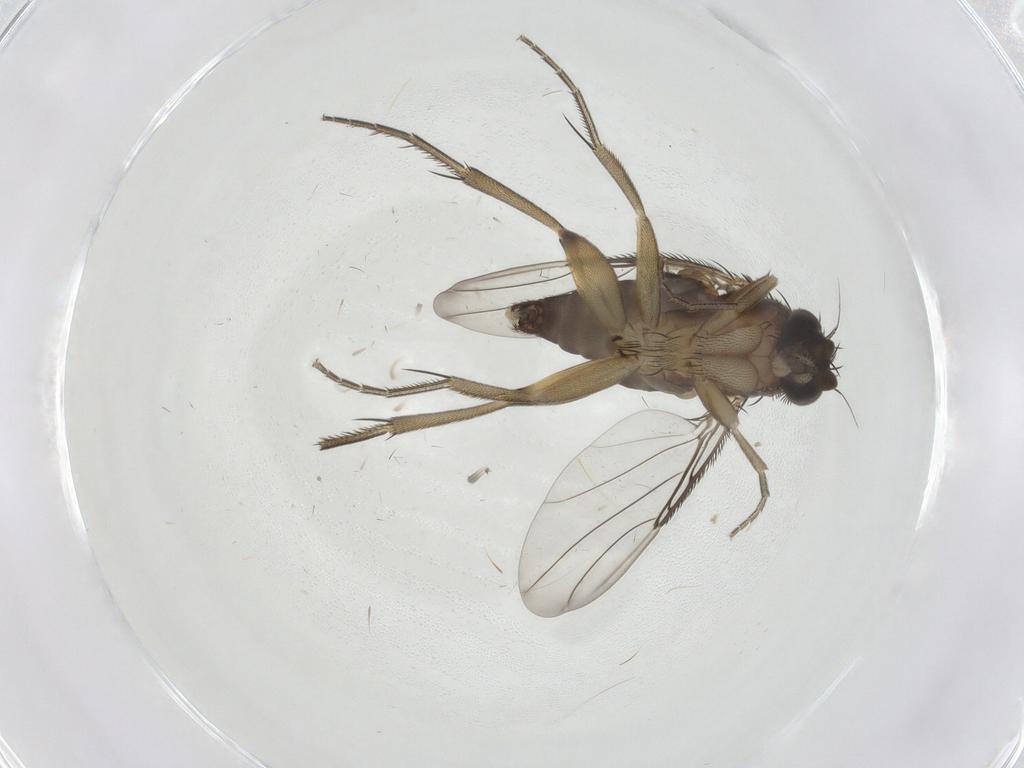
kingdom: Animalia
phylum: Arthropoda
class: Insecta
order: Diptera
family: Phoridae
